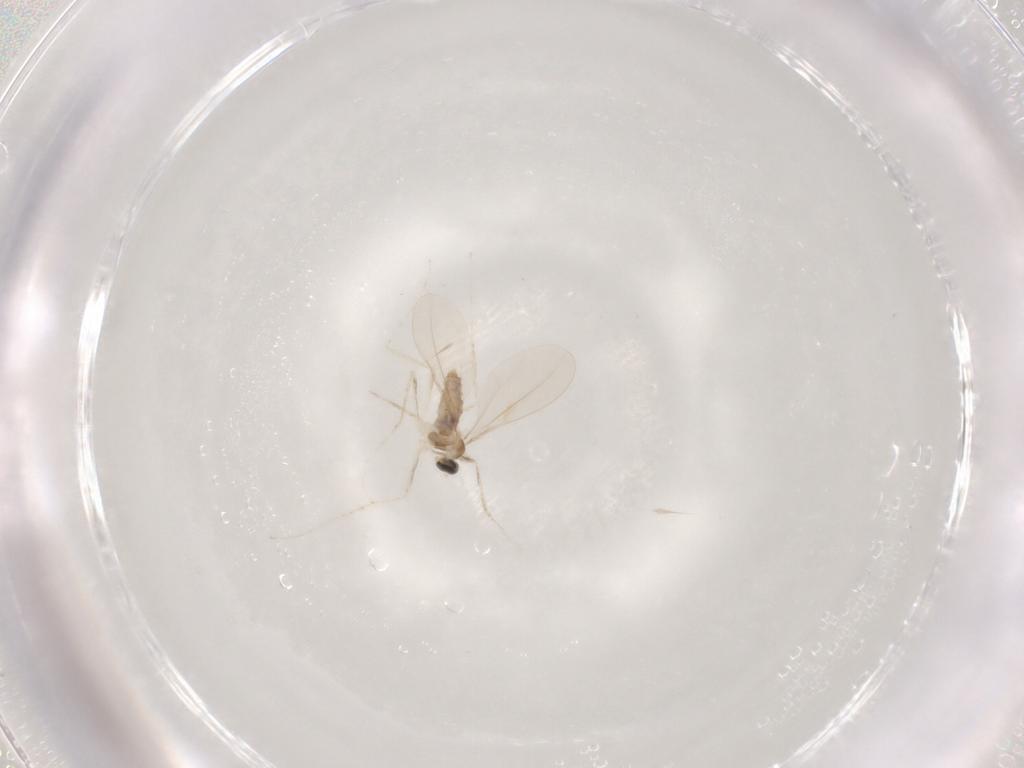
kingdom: Animalia
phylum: Arthropoda
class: Insecta
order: Diptera
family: Cecidomyiidae
